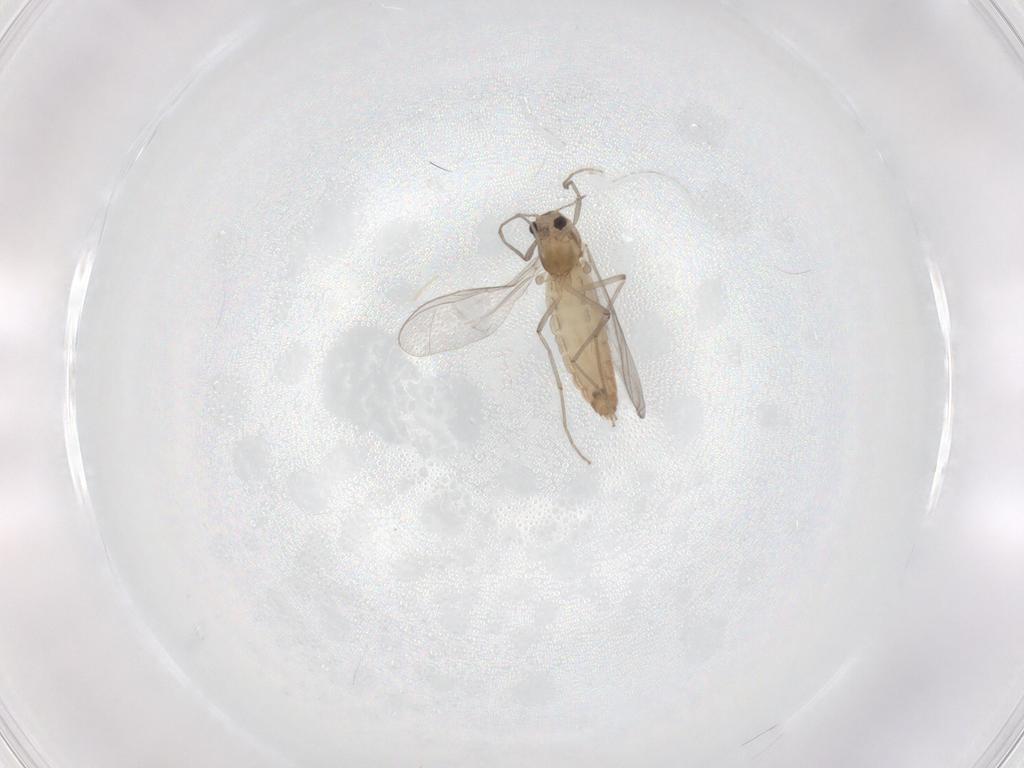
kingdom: Animalia
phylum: Arthropoda
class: Insecta
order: Diptera
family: Chironomidae
